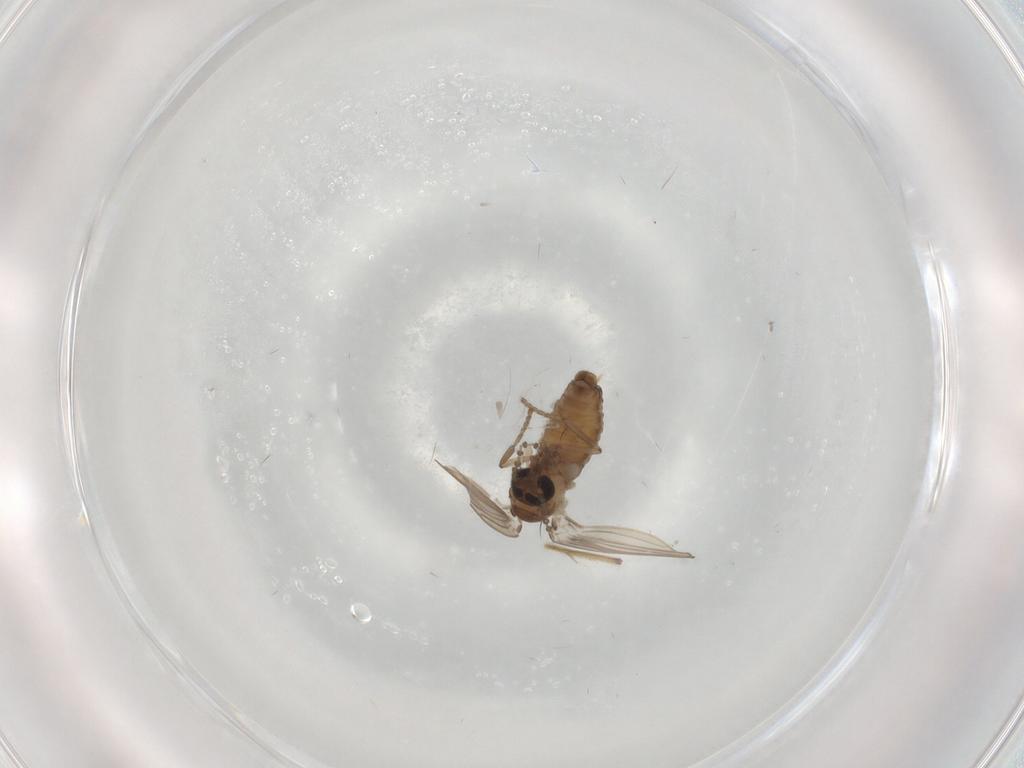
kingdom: Animalia
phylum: Arthropoda
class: Insecta
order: Diptera
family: Psychodidae
